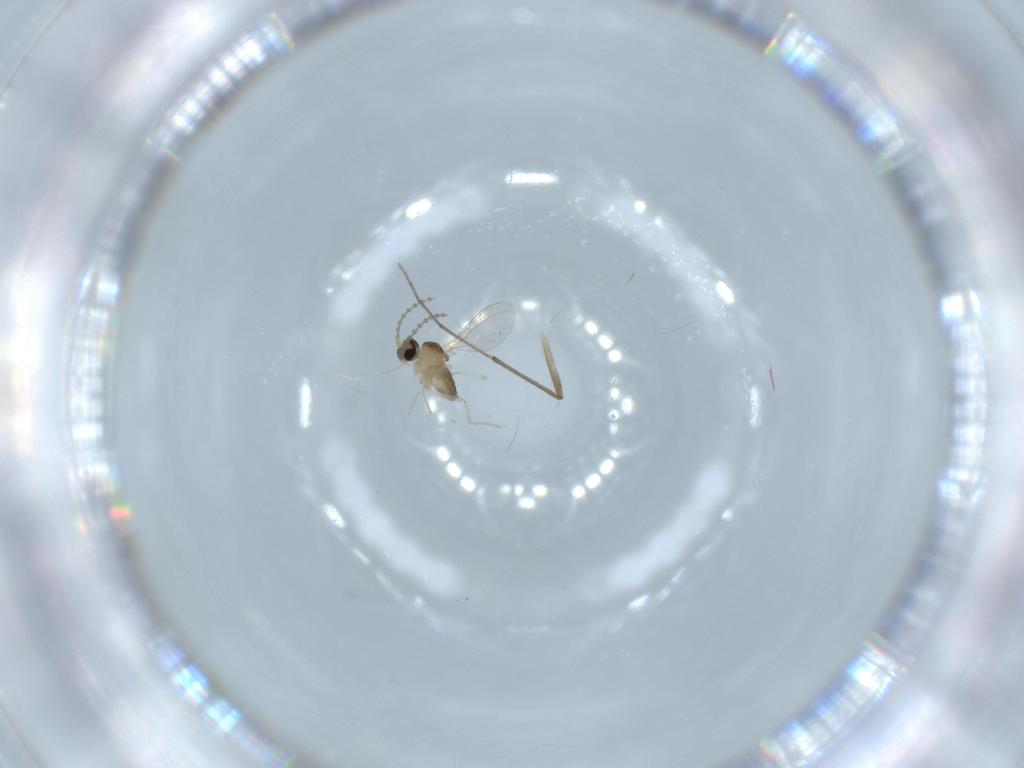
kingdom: Animalia
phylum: Arthropoda
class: Insecta
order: Diptera
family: Cecidomyiidae
